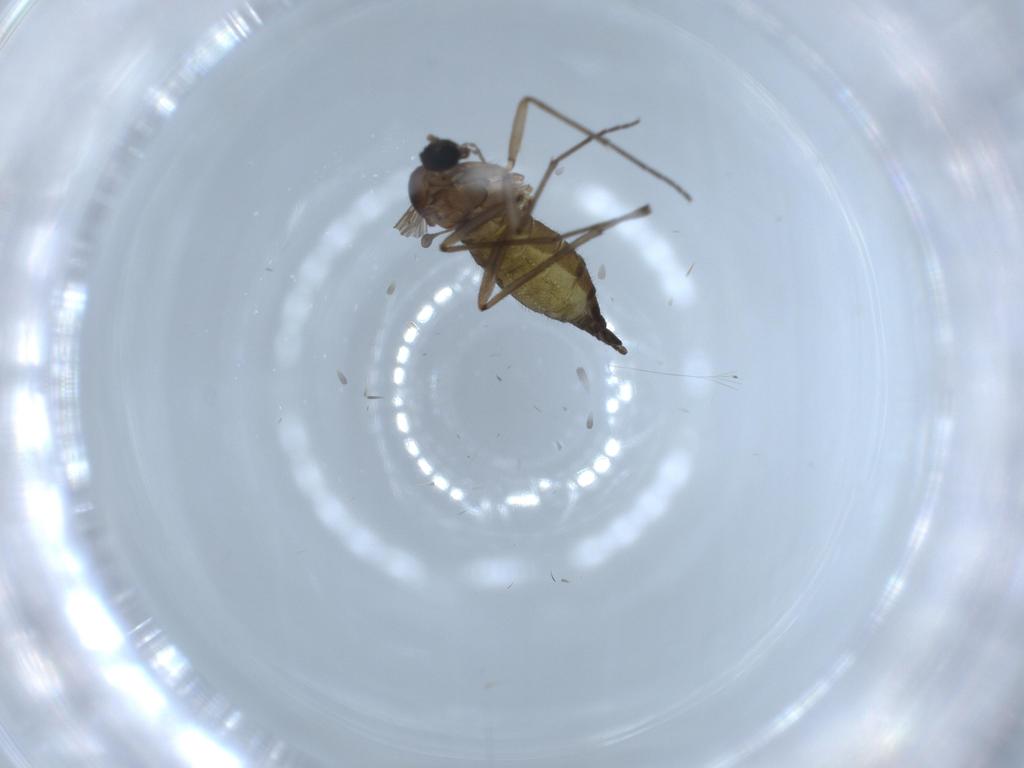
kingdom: Animalia
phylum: Arthropoda
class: Insecta
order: Diptera
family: Sciaridae
